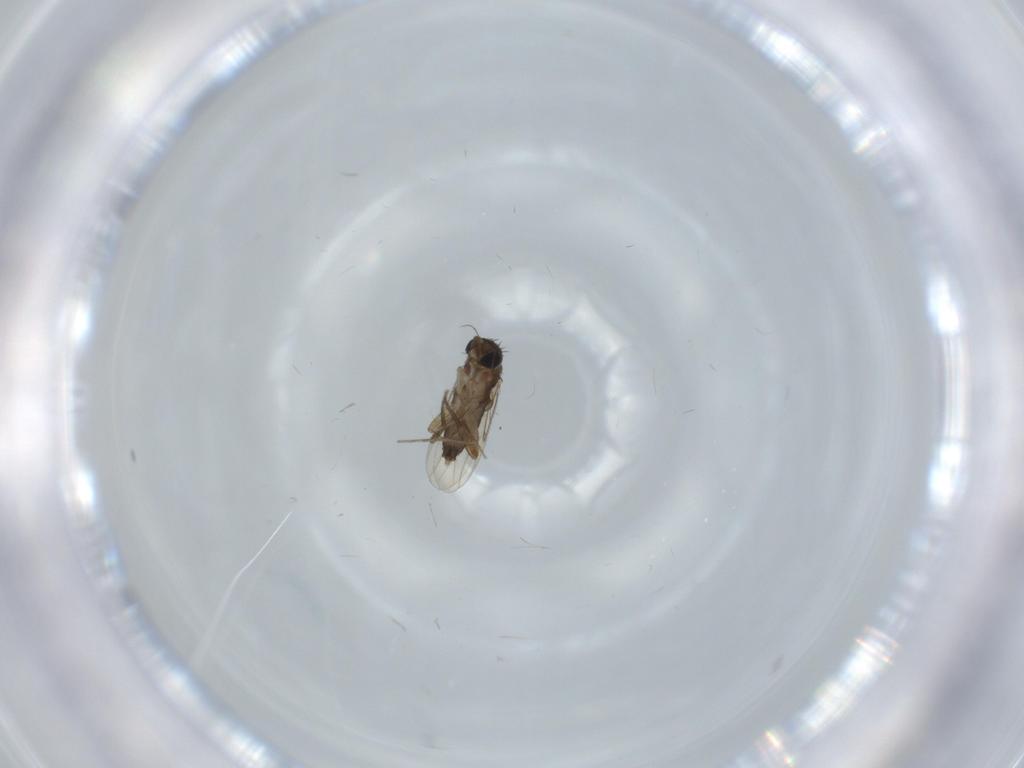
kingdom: Animalia
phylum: Arthropoda
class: Insecta
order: Diptera
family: Phoridae
